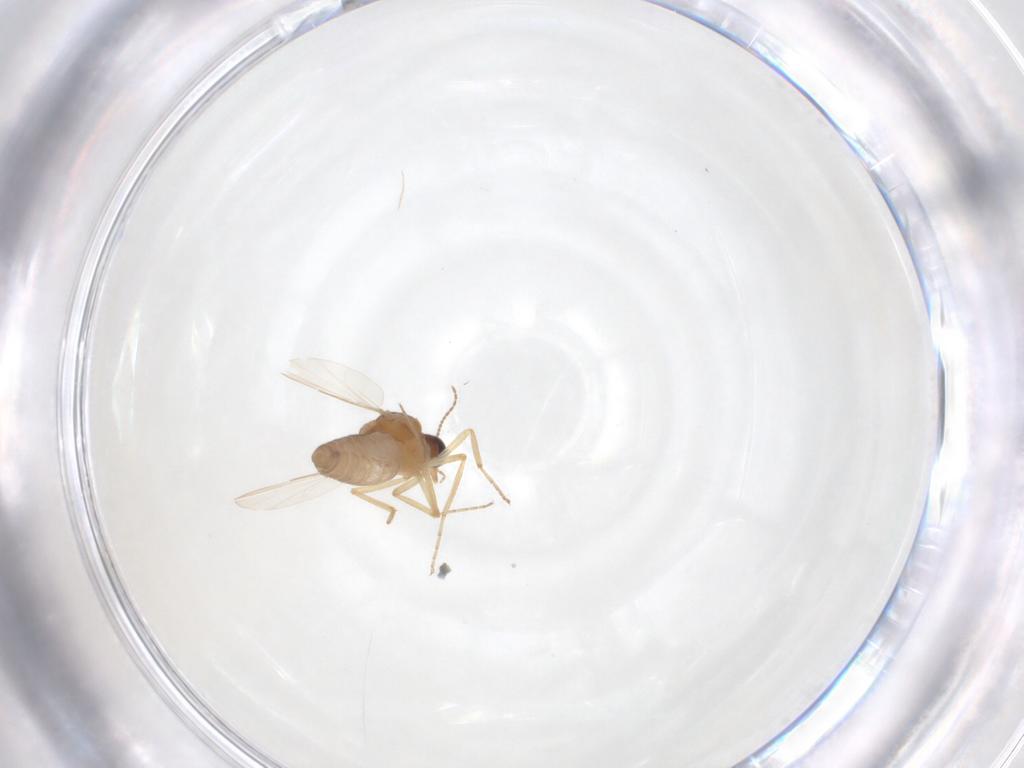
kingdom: Animalia
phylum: Arthropoda
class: Insecta
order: Diptera
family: Ceratopogonidae
